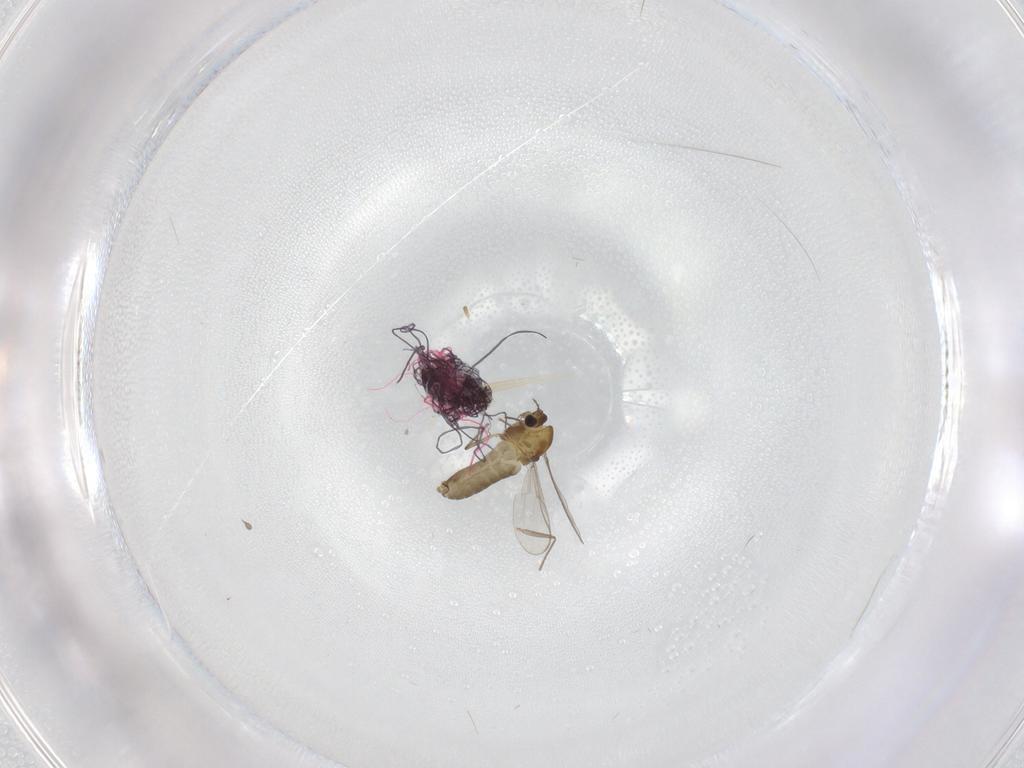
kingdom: Animalia
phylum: Arthropoda
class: Insecta
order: Diptera
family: Chironomidae
